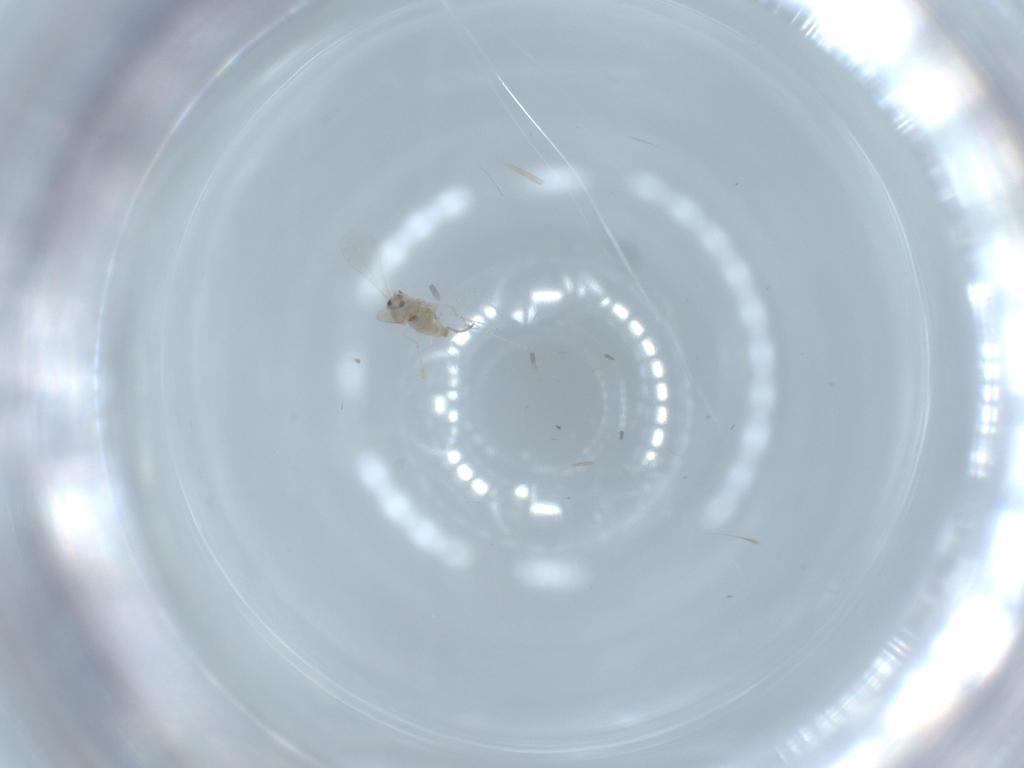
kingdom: Animalia
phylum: Arthropoda
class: Insecta
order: Diptera
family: Cecidomyiidae
